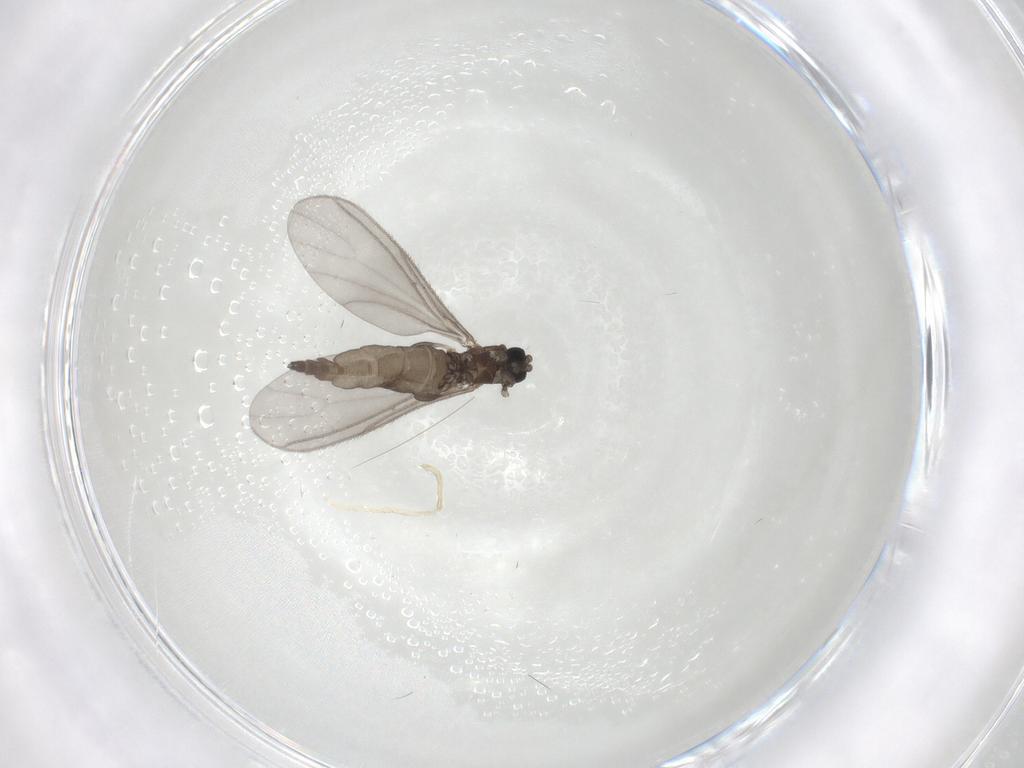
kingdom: Animalia
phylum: Arthropoda
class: Insecta
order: Diptera
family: Sciaridae
